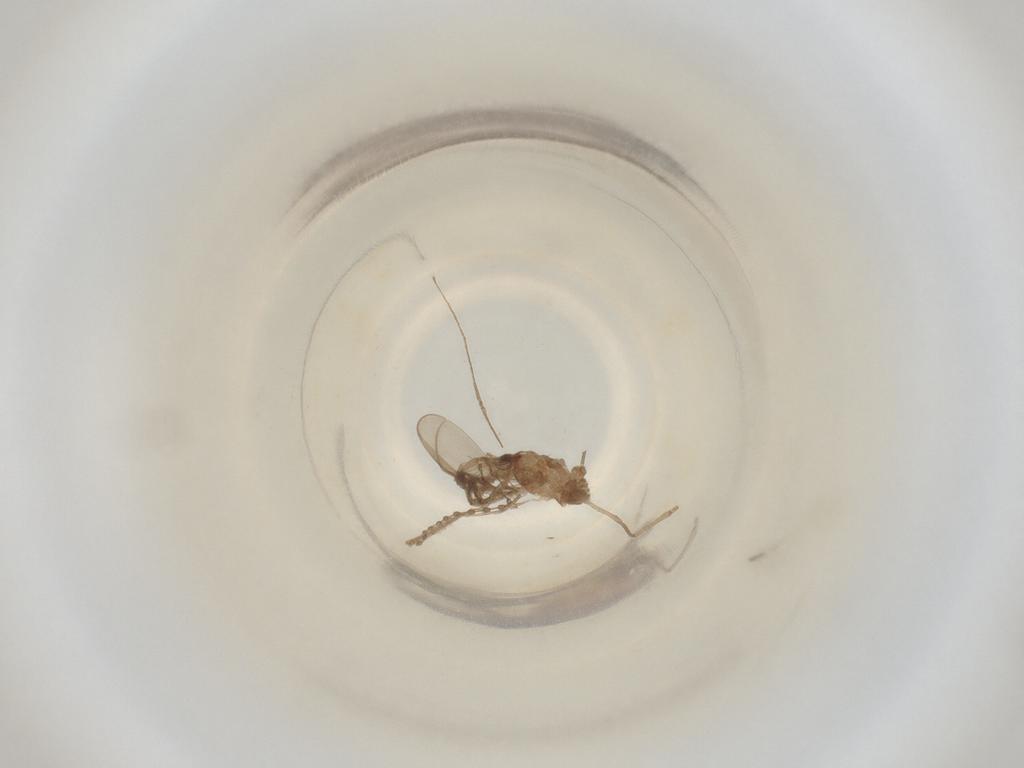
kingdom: Animalia
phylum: Arthropoda
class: Insecta
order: Diptera
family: Cecidomyiidae
